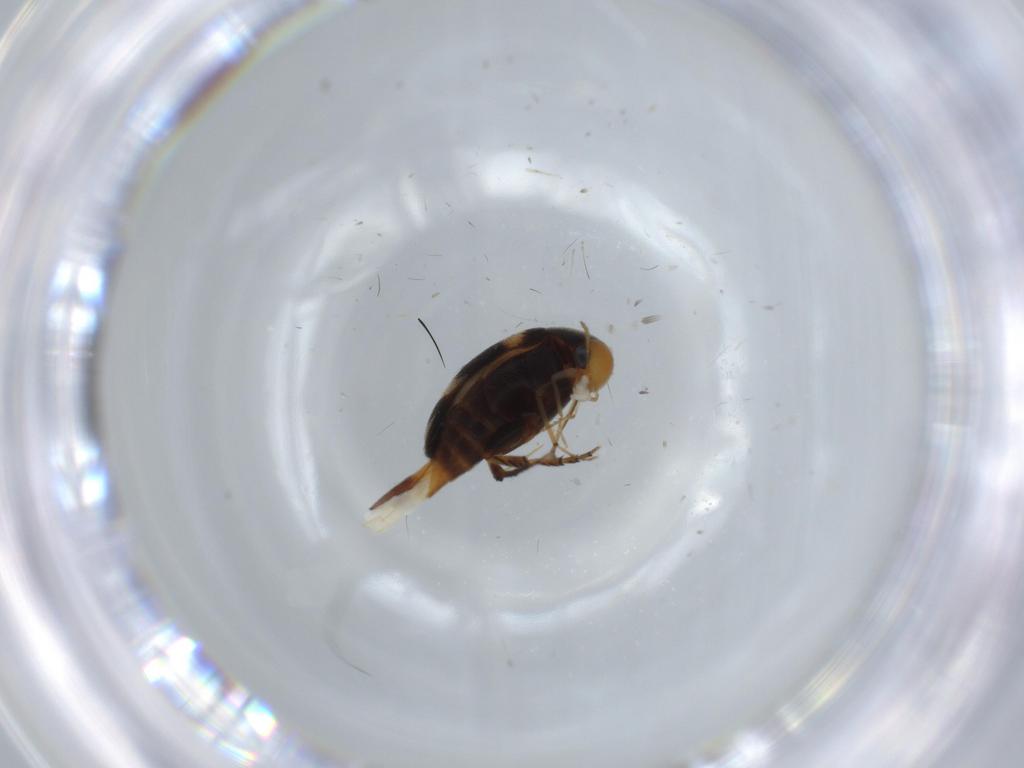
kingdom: Animalia
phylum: Arthropoda
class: Insecta
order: Coleoptera
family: Mordellidae
